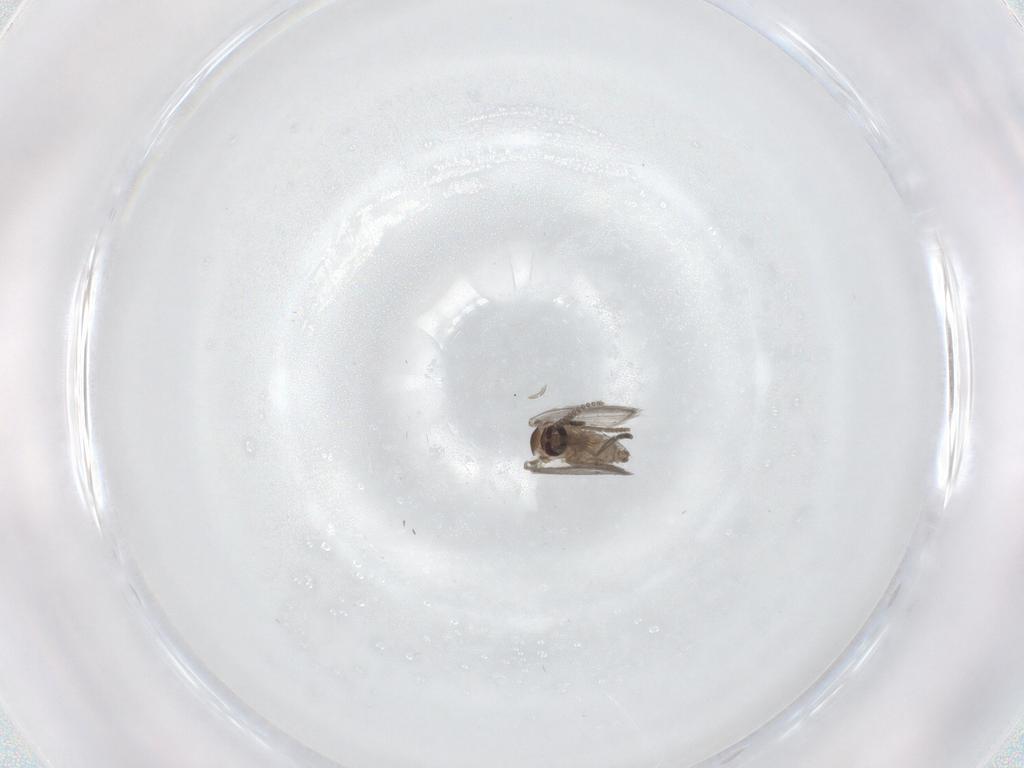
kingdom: Animalia
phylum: Arthropoda
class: Insecta
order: Diptera
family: Psychodidae
